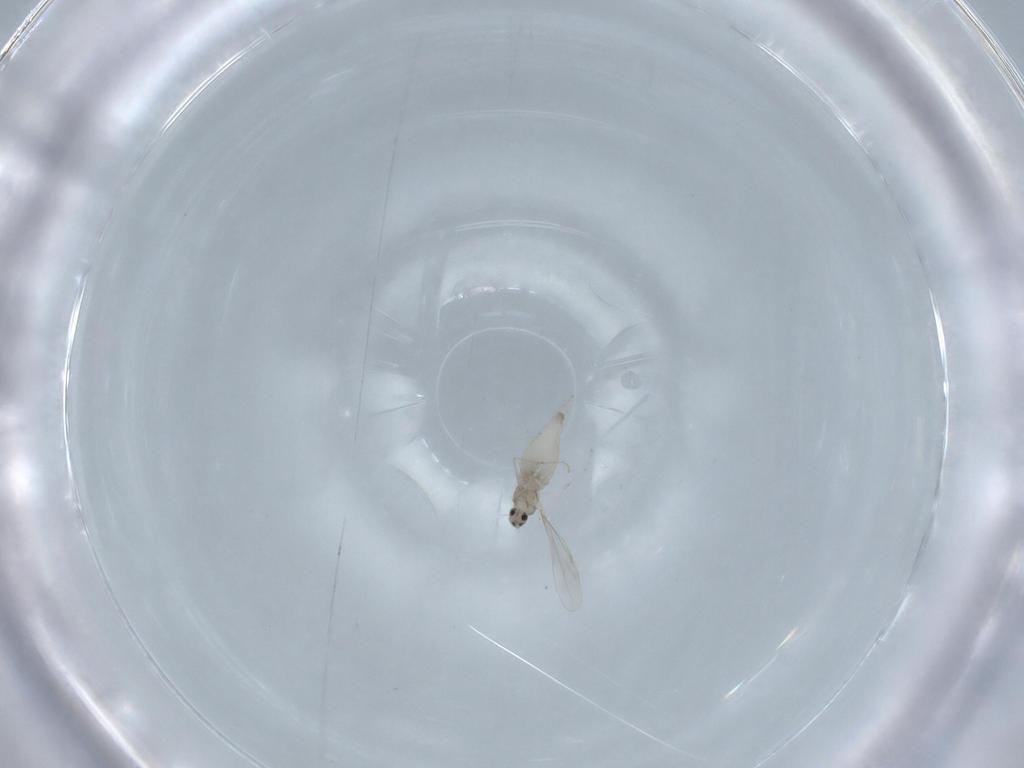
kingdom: Animalia
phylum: Arthropoda
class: Insecta
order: Diptera
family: Cecidomyiidae
